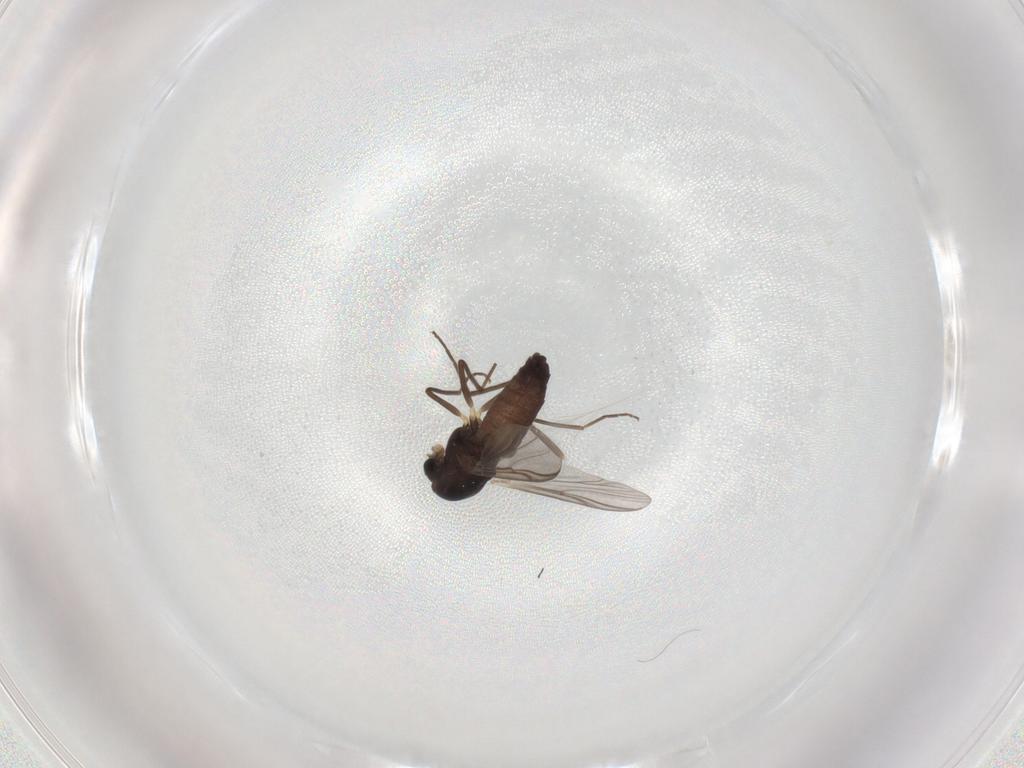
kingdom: Animalia
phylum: Arthropoda
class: Insecta
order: Diptera
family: Chironomidae
